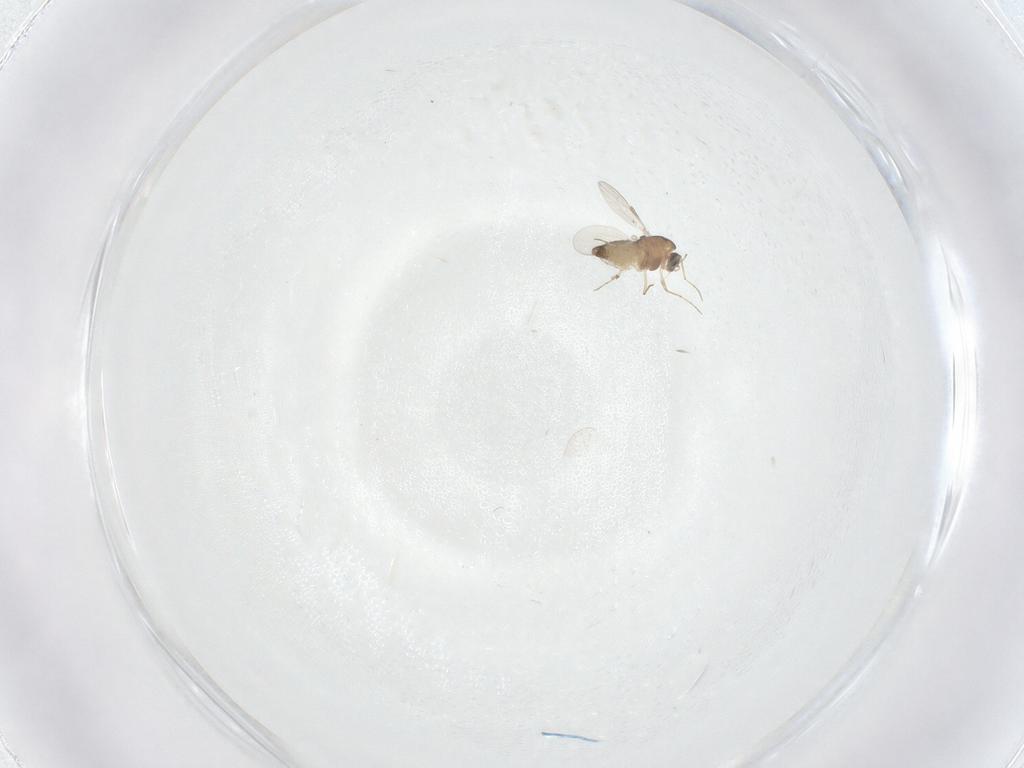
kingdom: Animalia
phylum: Arthropoda
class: Insecta
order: Diptera
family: Chironomidae
